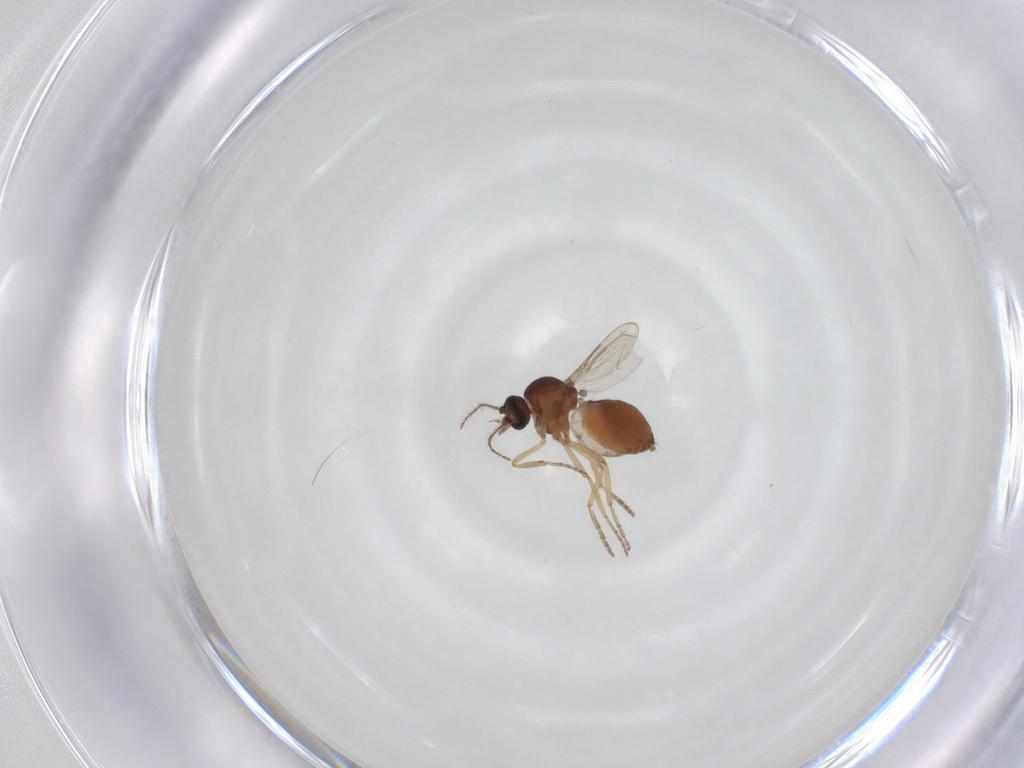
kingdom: Animalia
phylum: Arthropoda
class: Insecta
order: Diptera
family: Ceratopogonidae
